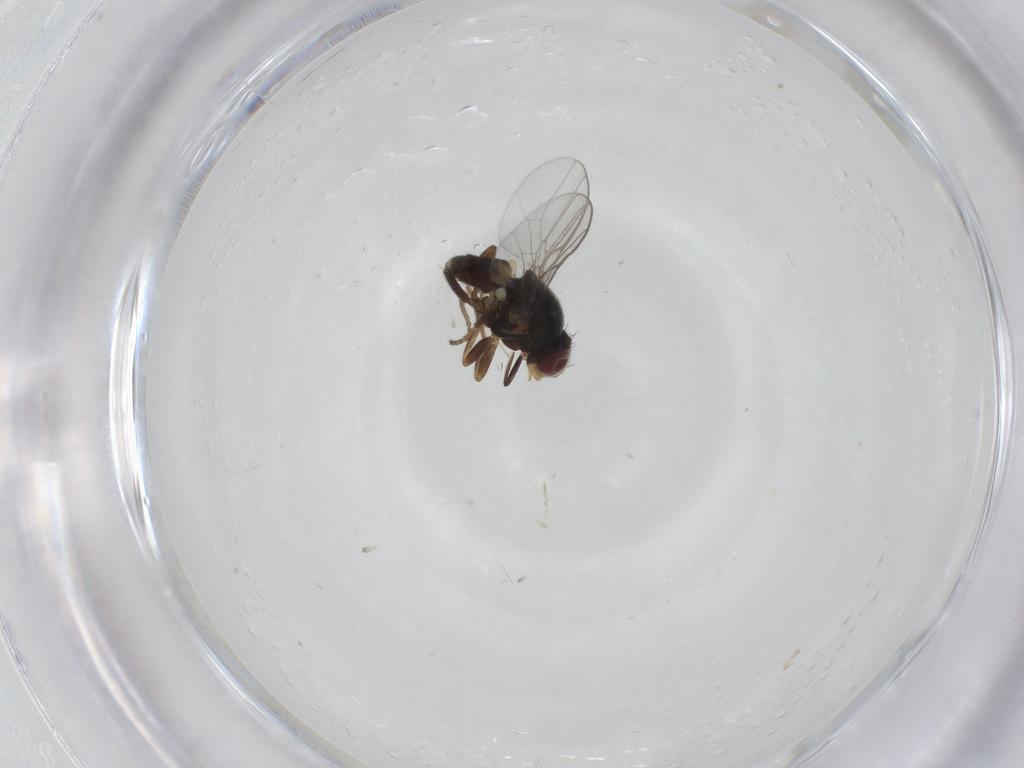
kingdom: Animalia
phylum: Arthropoda
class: Insecta
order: Diptera
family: Chloropidae
